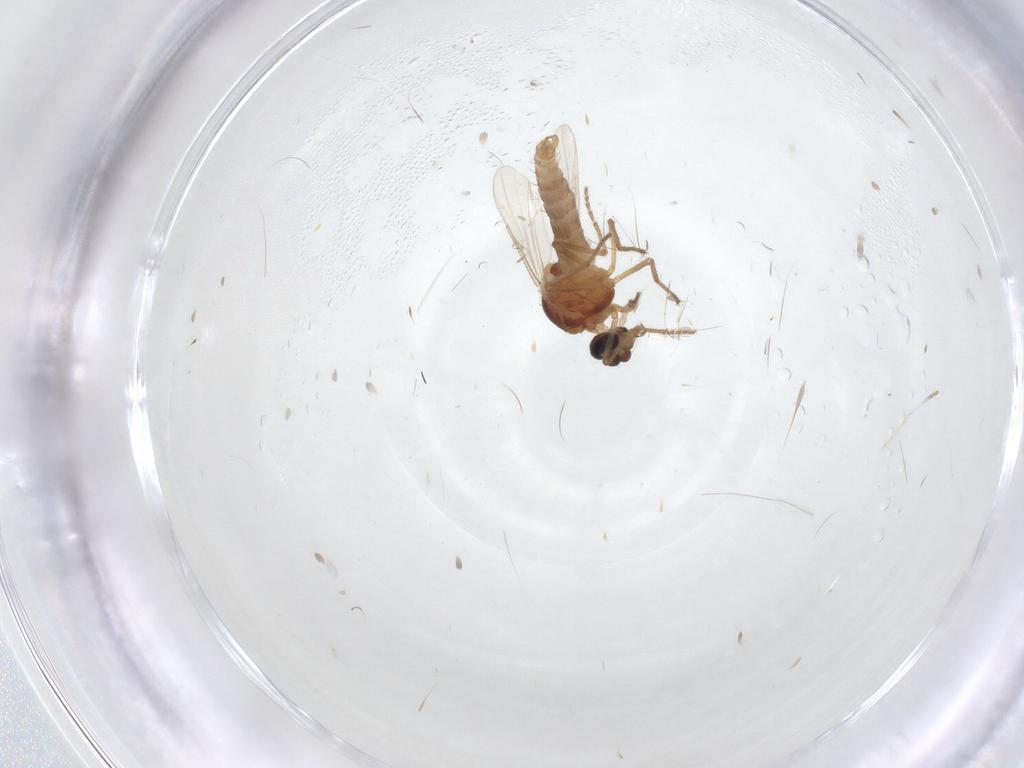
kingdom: Animalia
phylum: Arthropoda
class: Insecta
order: Diptera
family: Ceratopogonidae
